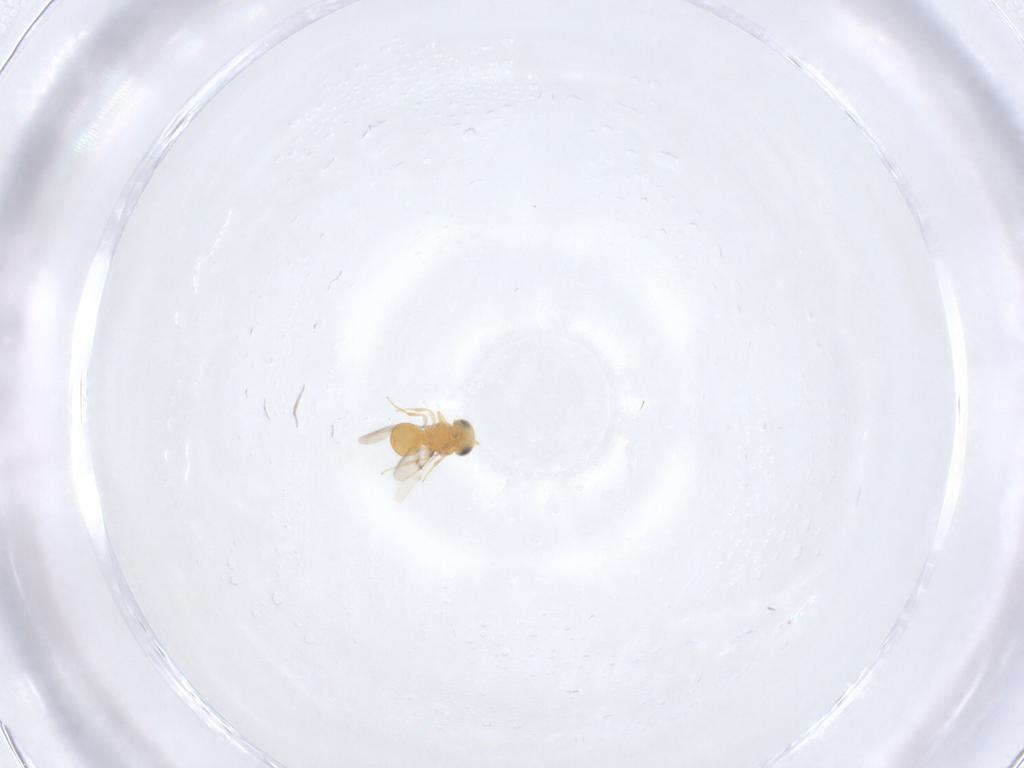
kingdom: Animalia
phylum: Arthropoda
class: Insecta
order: Hymenoptera
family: Scelionidae
